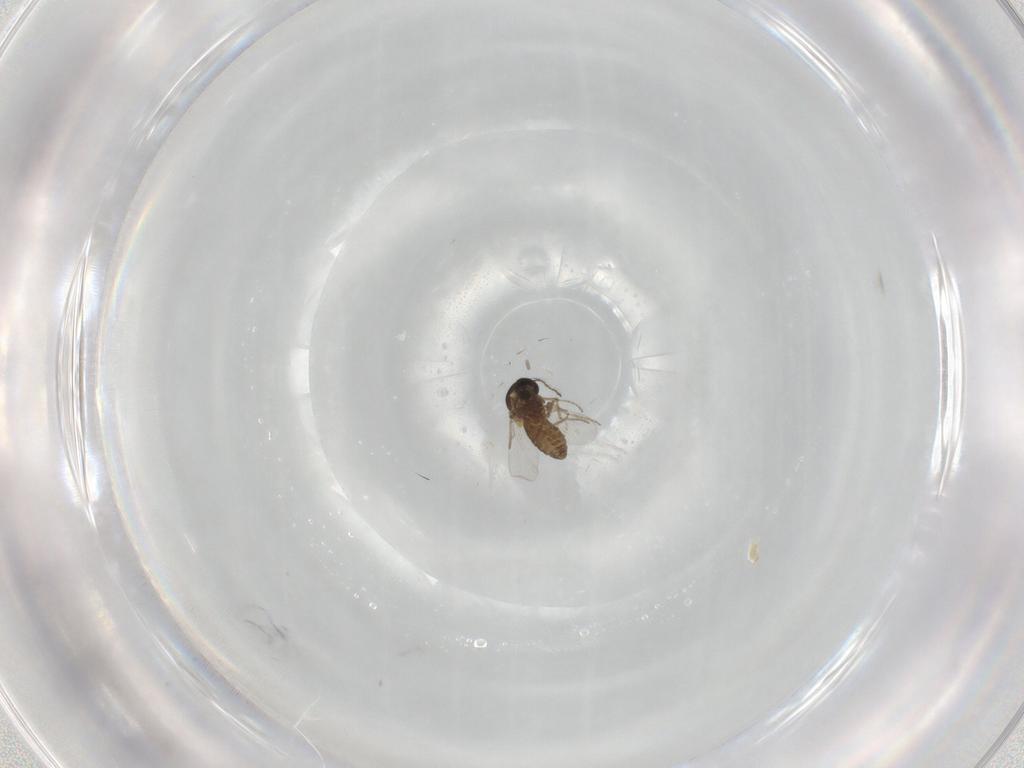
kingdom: Animalia
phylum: Arthropoda
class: Insecta
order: Diptera
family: Ceratopogonidae
